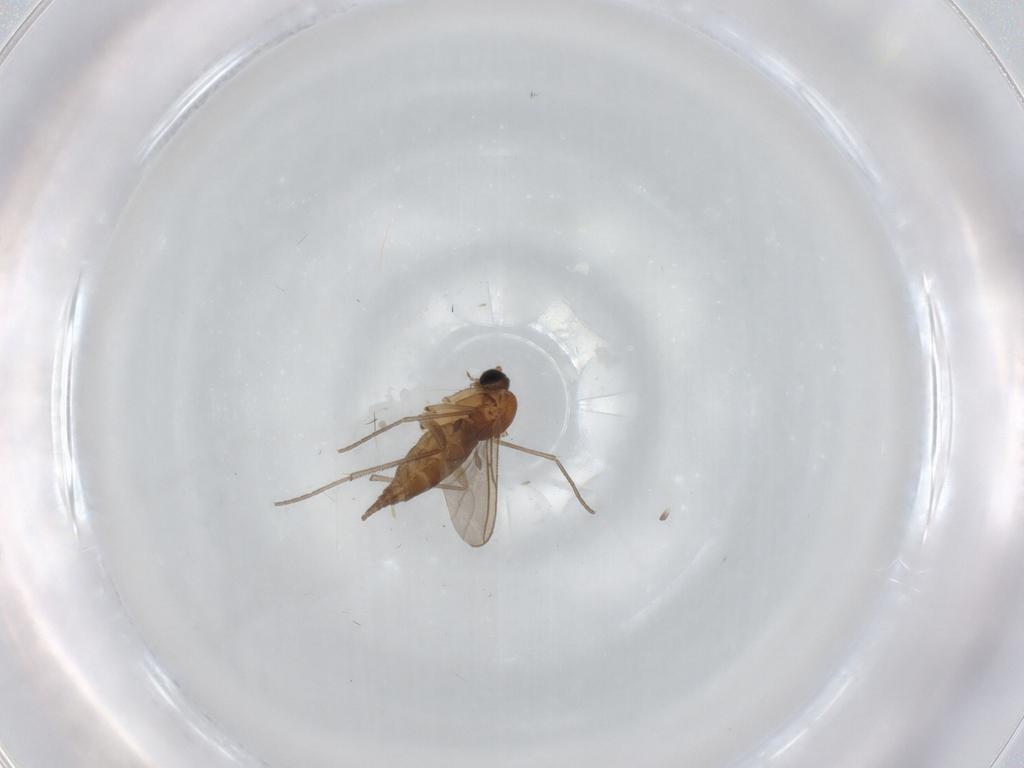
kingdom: Animalia
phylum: Arthropoda
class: Insecta
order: Diptera
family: Sciaridae
